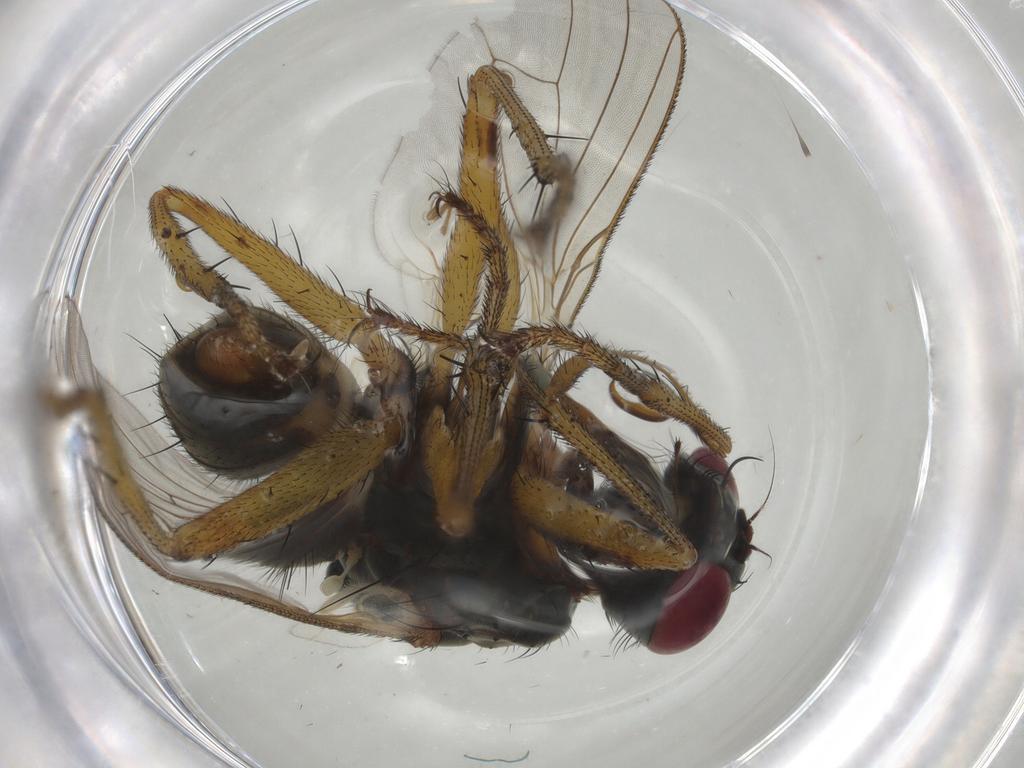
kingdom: Animalia
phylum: Arthropoda
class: Insecta
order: Diptera
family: Muscidae
